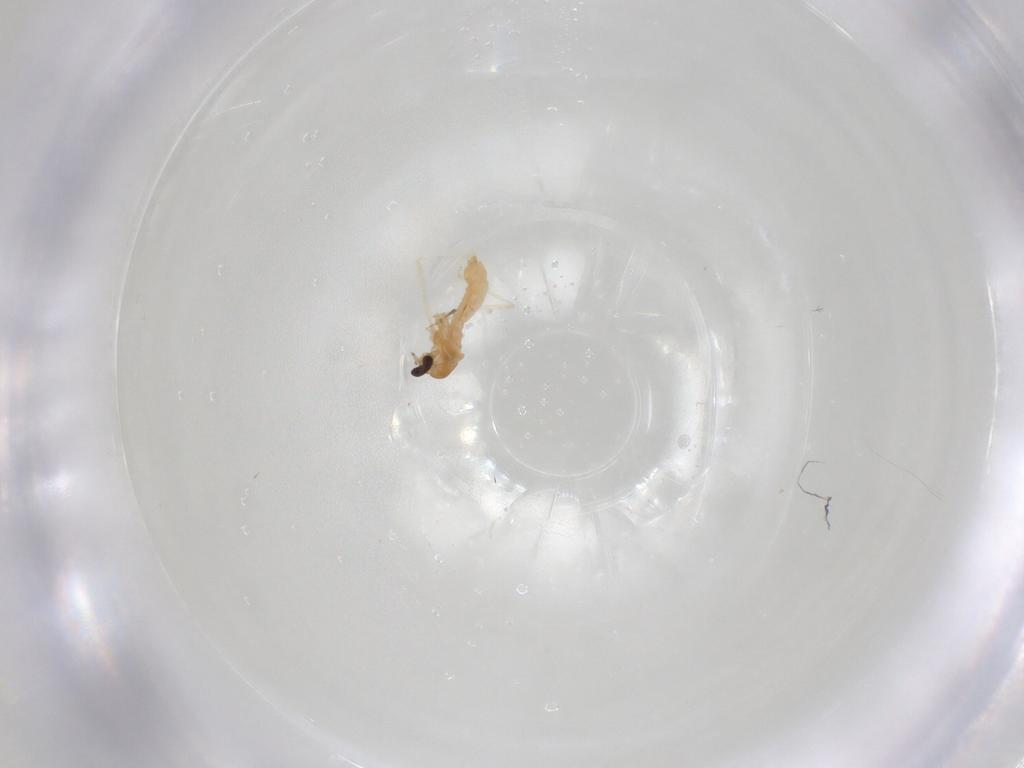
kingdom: Animalia
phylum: Arthropoda
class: Insecta
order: Diptera
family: Cecidomyiidae
